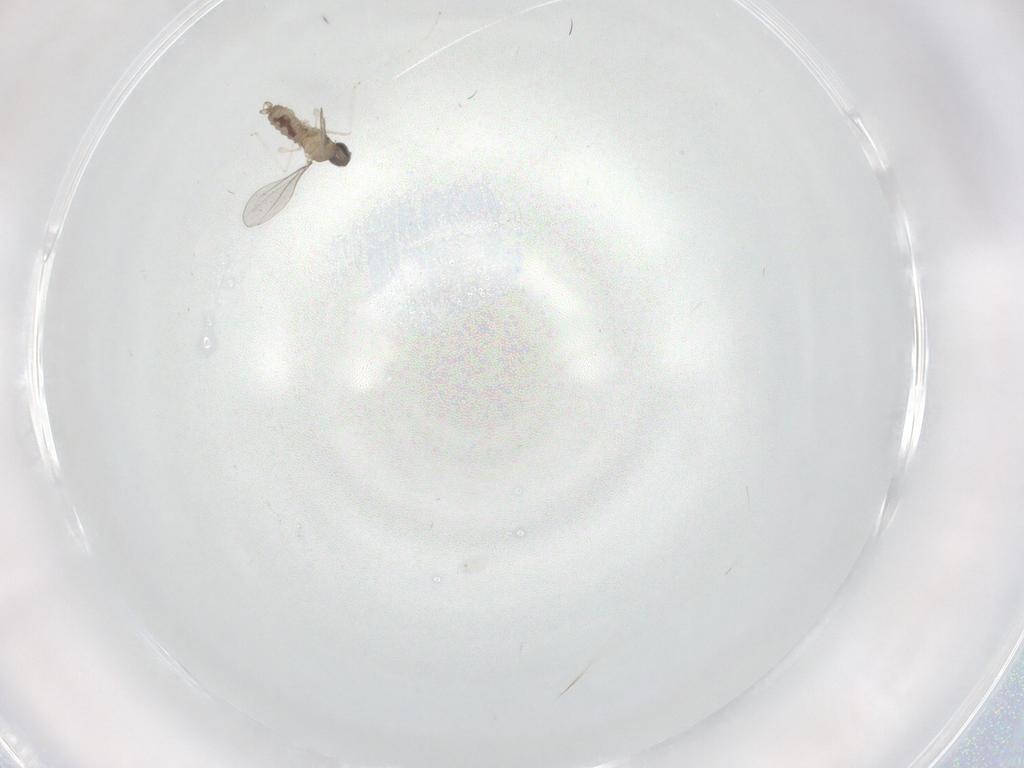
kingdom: Animalia
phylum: Arthropoda
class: Insecta
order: Diptera
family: Cecidomyiidae
